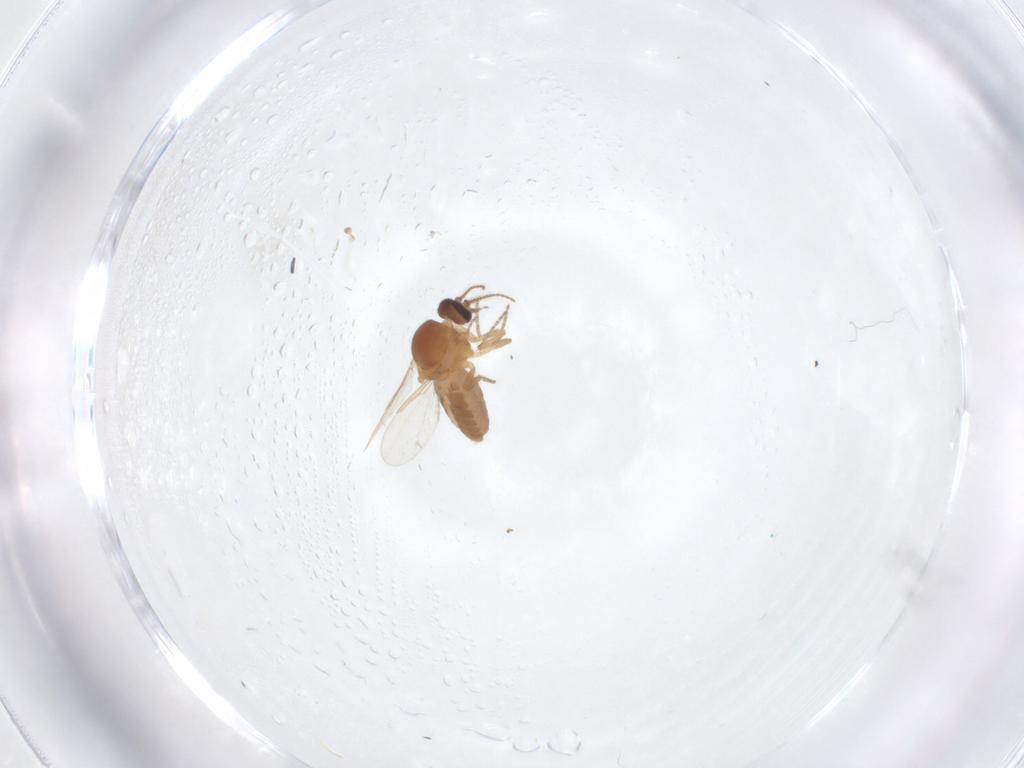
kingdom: Animalia
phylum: Arthropoda
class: Insecta
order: Diptera
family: Ceratopogonidae
